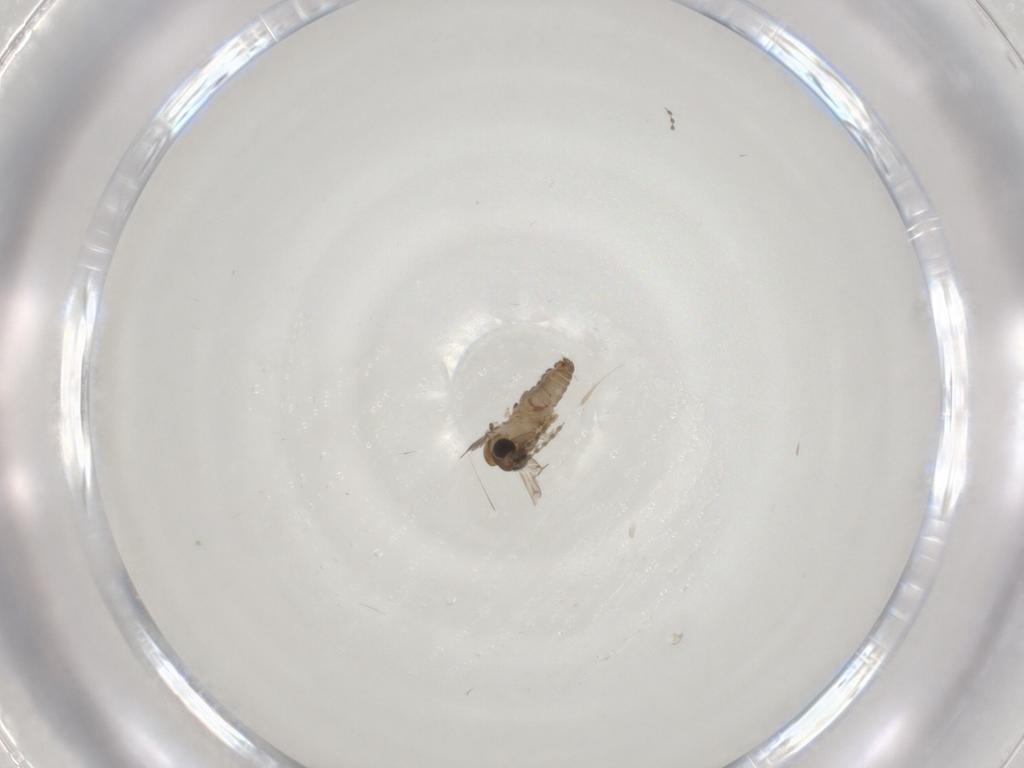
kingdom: Animalia
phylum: Arthropoda
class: Insecta
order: Diptera
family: Psychodidae
